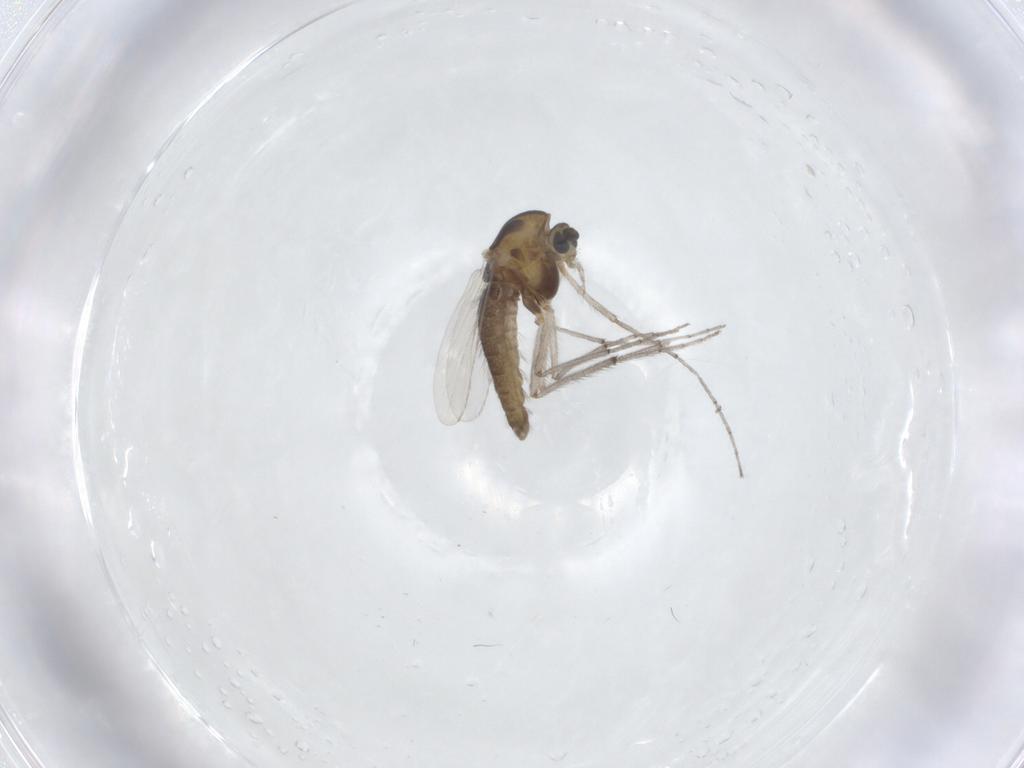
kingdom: Animalia
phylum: Arthropoda
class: Insecta
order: Diptera
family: Chironomidae
